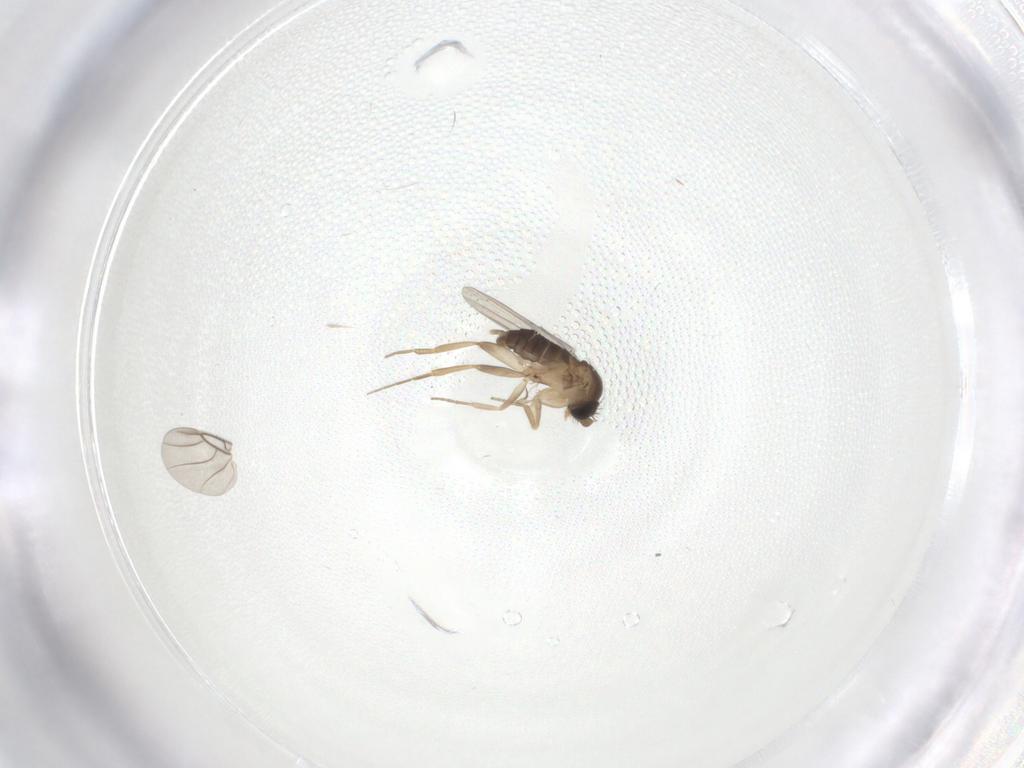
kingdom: Animalia
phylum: Arthropoda
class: Insecta
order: Diptera
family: Phoridae
